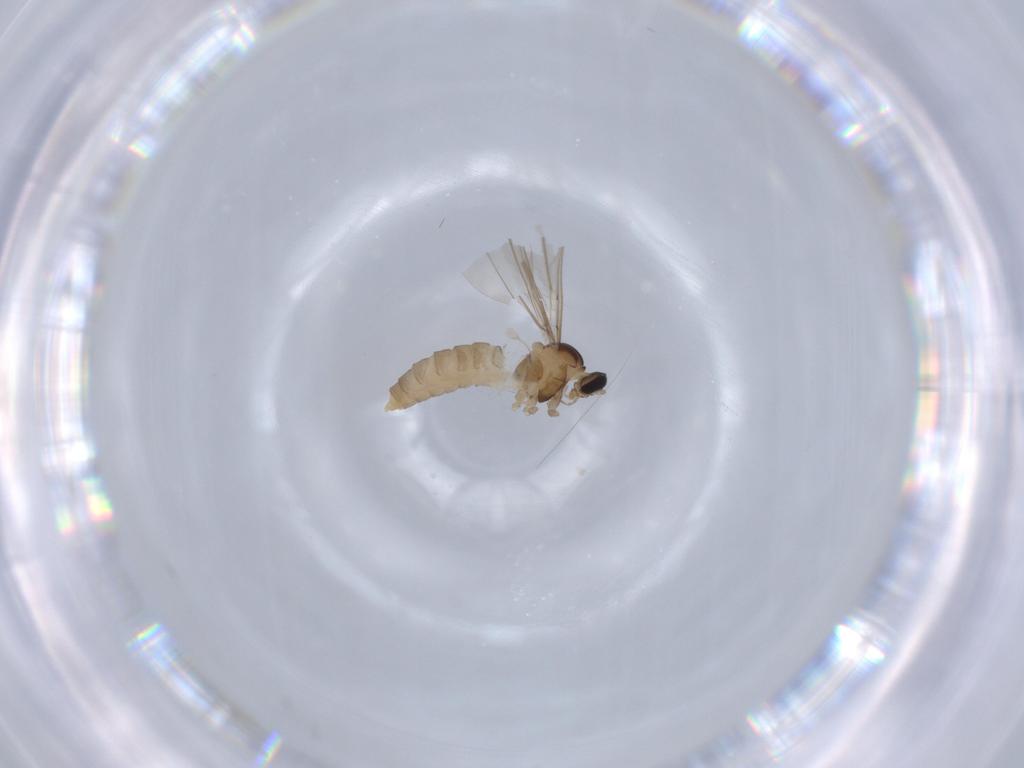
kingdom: Animalia
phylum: Arthropoda
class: Insecta
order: Diptera
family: Cecidomyiidae
